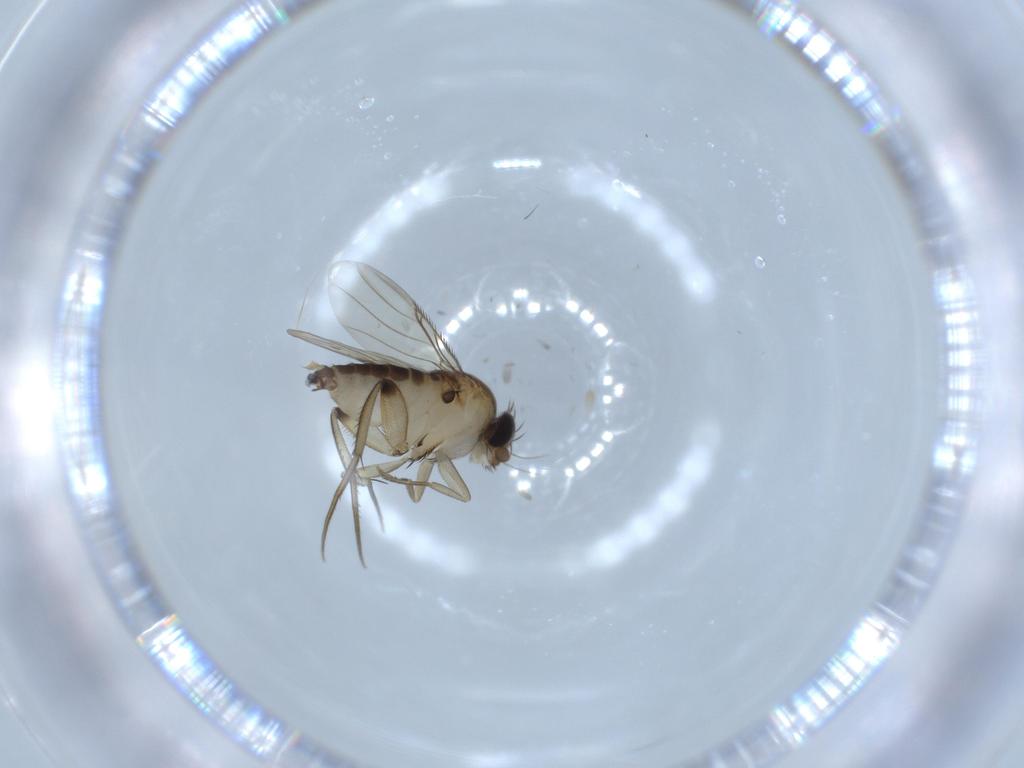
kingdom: Animalia
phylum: Arthropoda
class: Insecta
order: Diptera
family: Phoridae
